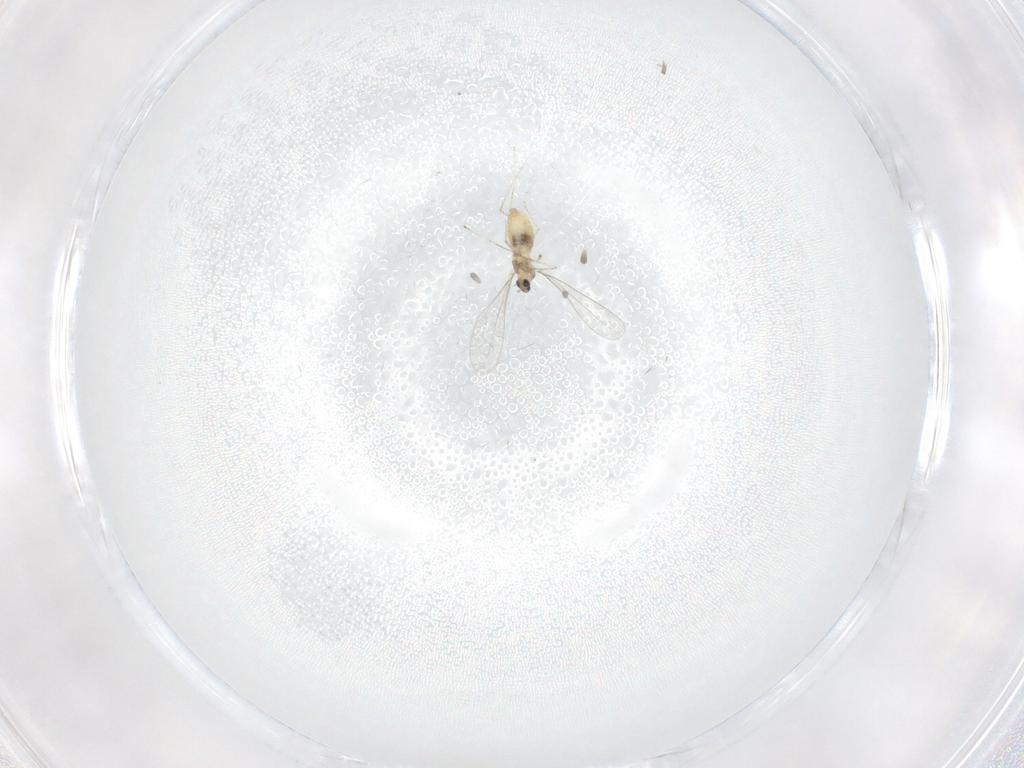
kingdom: Animalia
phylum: Arthropoda
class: Insecta
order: Diptera
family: Cecidomyiidae
